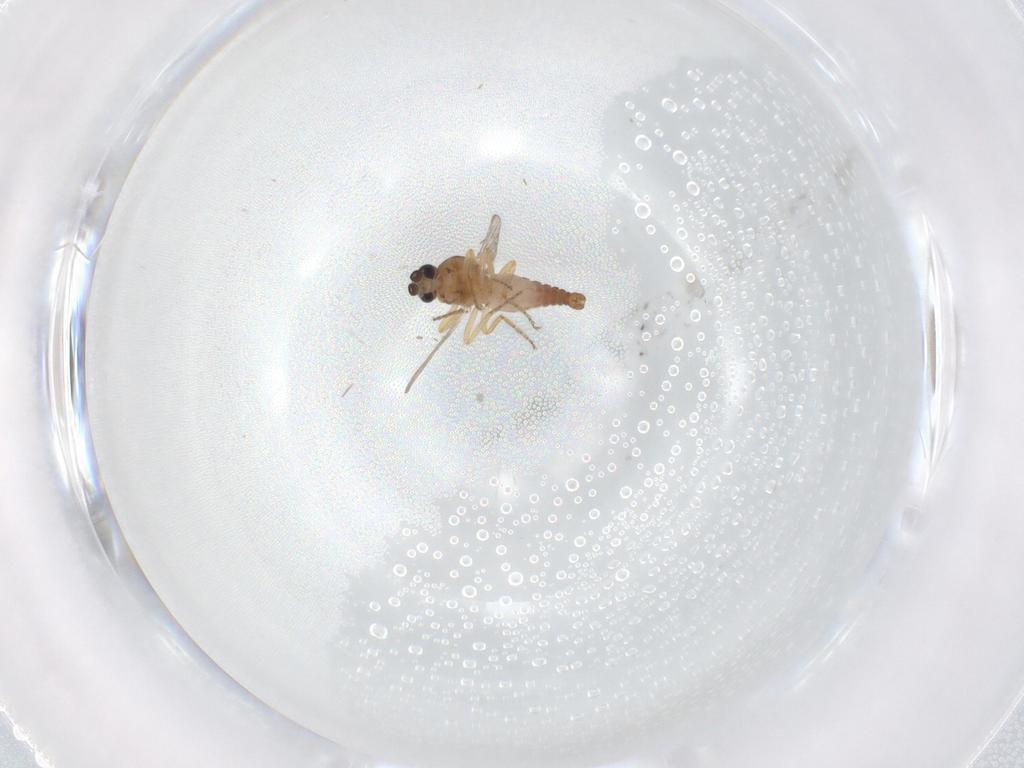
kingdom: Animalia
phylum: Arthropoda
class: Insecta
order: Diptera
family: Ceratopogonidae
